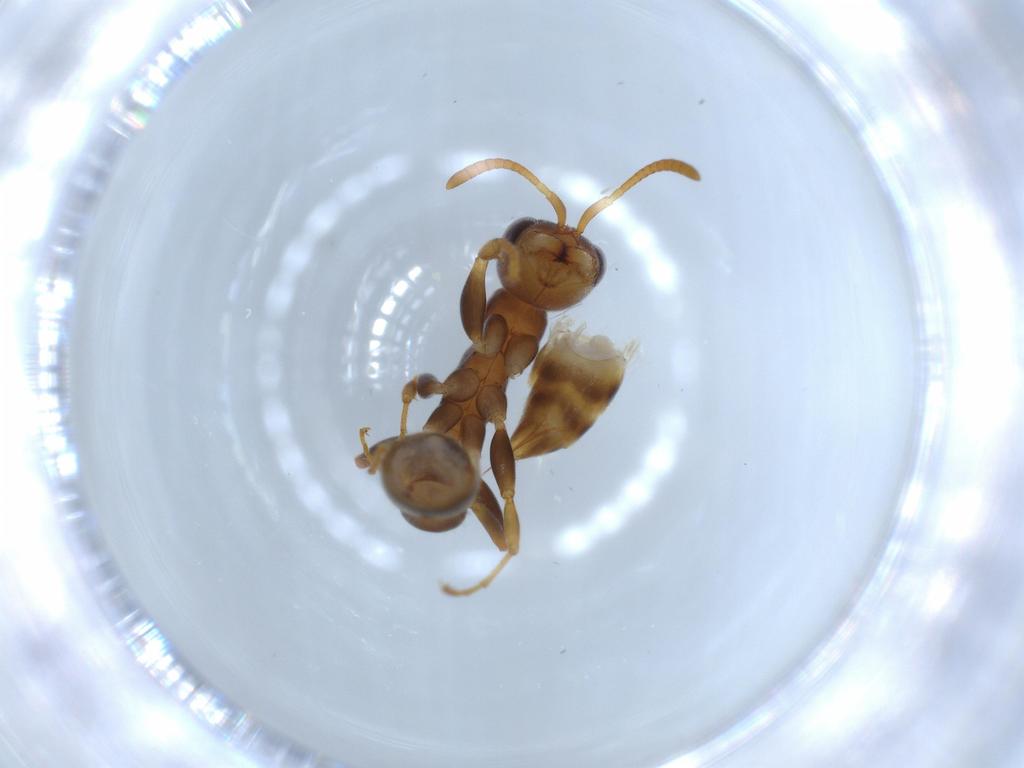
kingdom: Animalia
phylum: Arthropoda
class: Insecta
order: Hymenoptera
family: Formicidae
